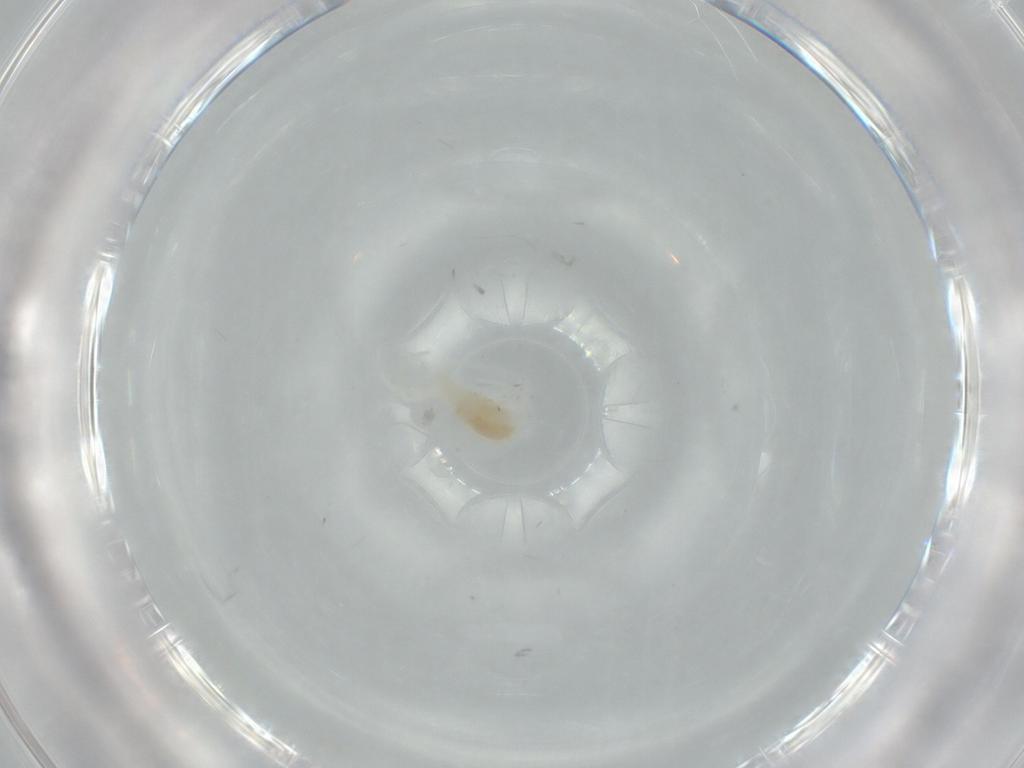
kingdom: Animalia
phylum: Arthropoda
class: Arachnida
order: Trombidiformes
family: Rhagidiidae
